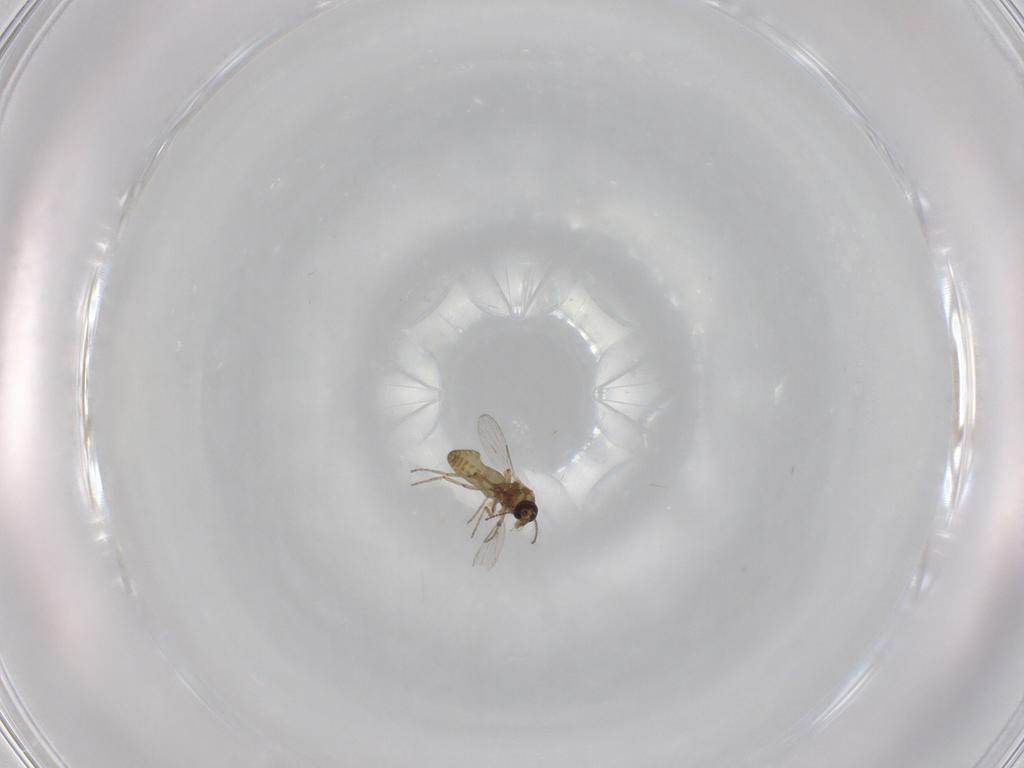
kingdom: Animalia
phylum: Arthropoda
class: Insecta
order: Diptera
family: Ceratopogonidae
